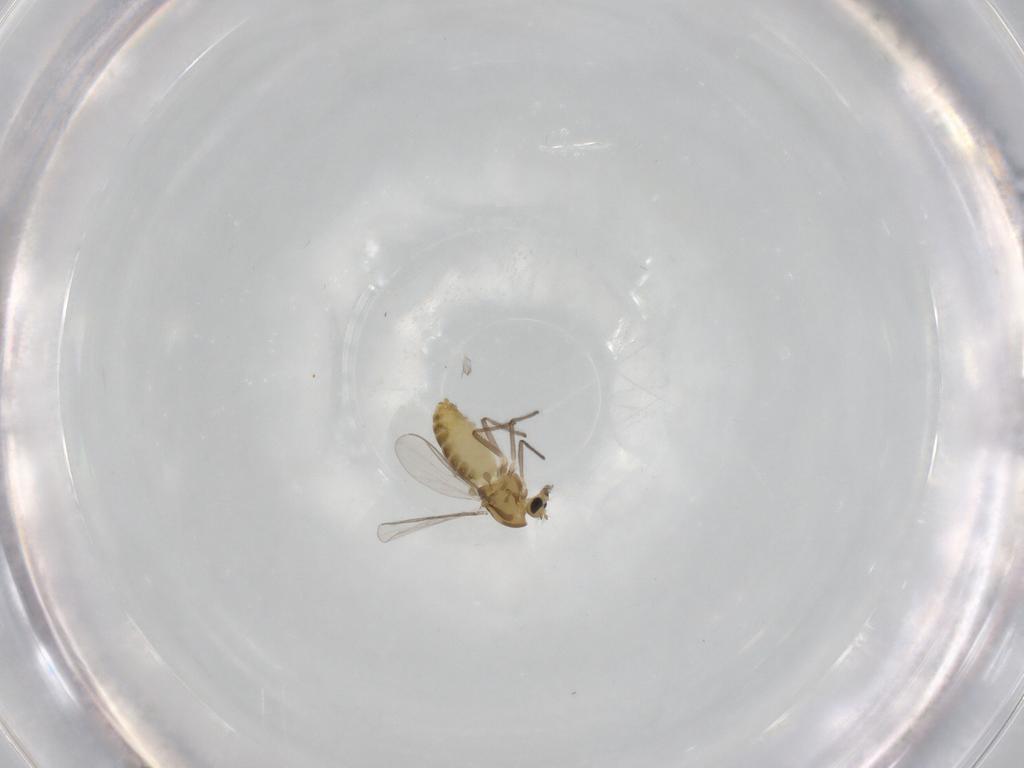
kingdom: Animalia
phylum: Arthropoda
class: Insecta
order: Diptera
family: Chironomidae
